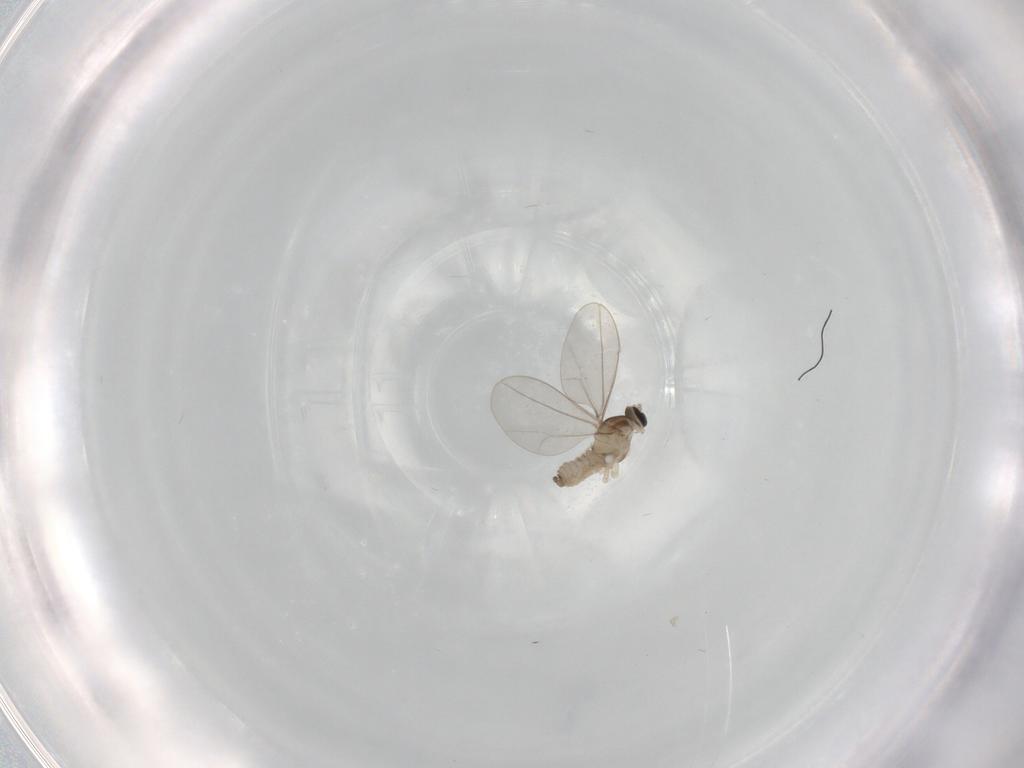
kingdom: Animalia
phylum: Arthropoda
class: Insecta
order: Diptera
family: Cecidomyiidae
